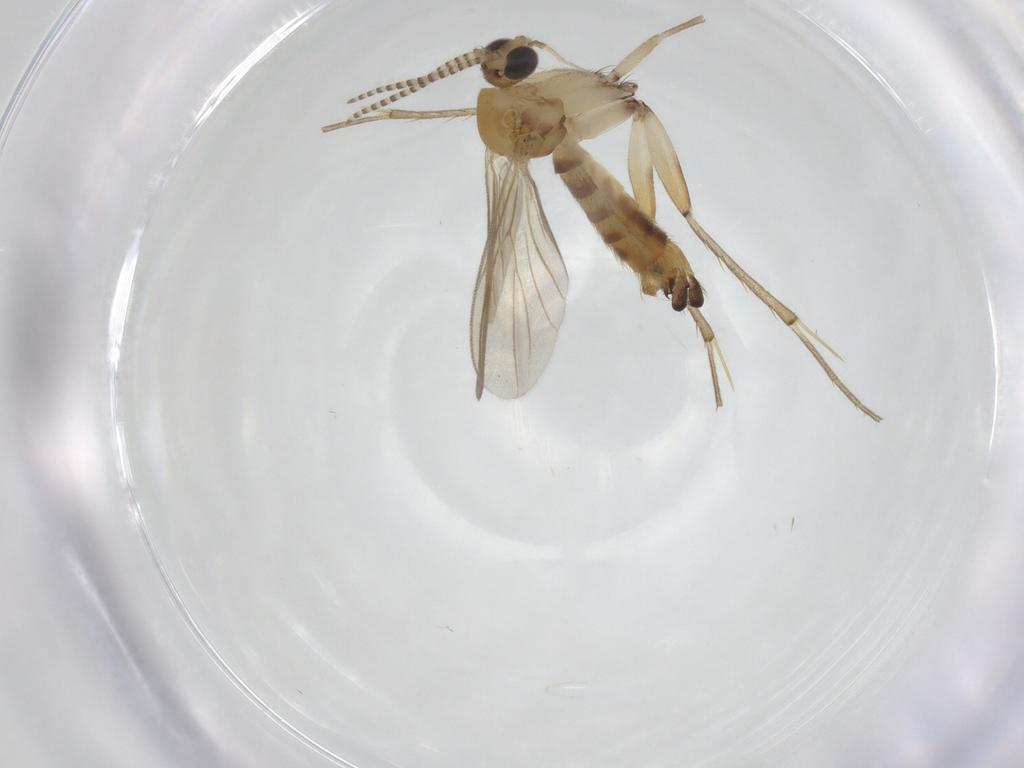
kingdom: Animalia
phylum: Arthropoda
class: Insecta
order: Diptera
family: Mycetophilidae
